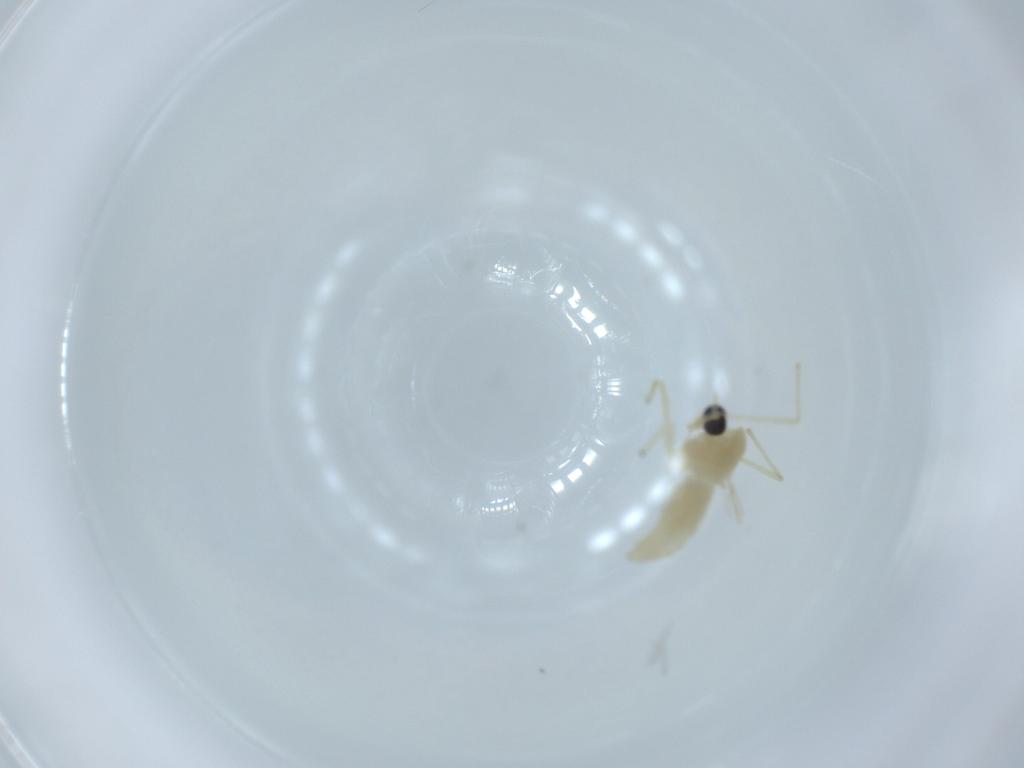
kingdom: Animalia
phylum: Arthropoda
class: Insecta
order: Diptera
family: Chironomidae
